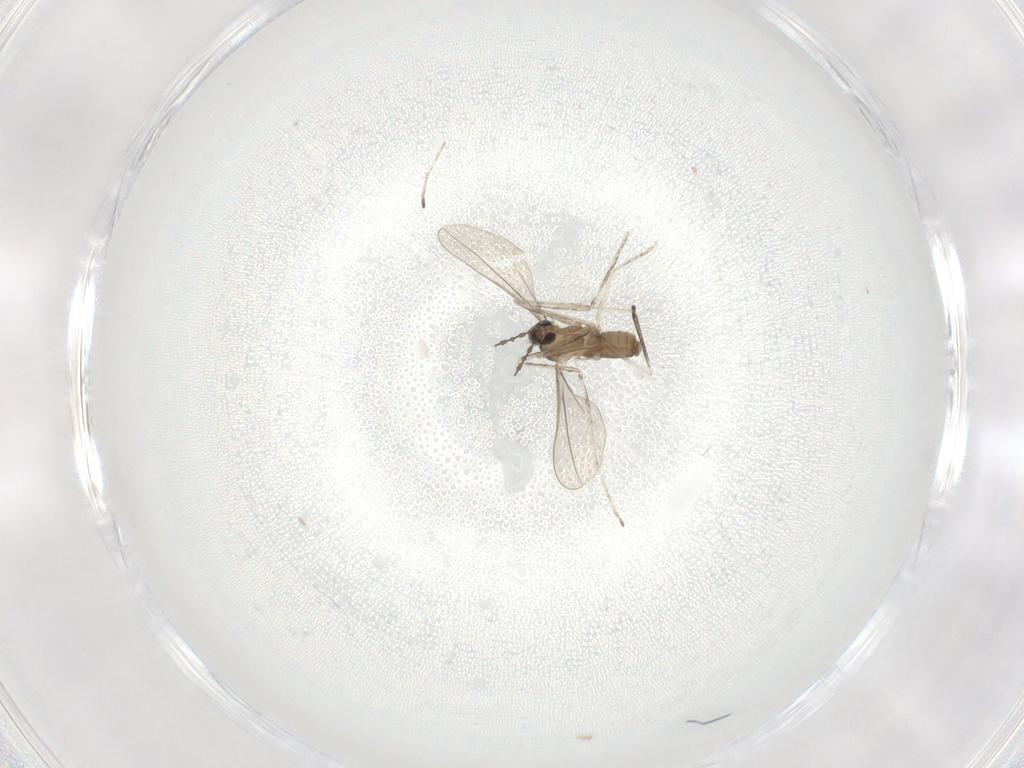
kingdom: Animalia
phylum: Arthropoda
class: Insecta
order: Diptera
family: Cecidomyiidae
